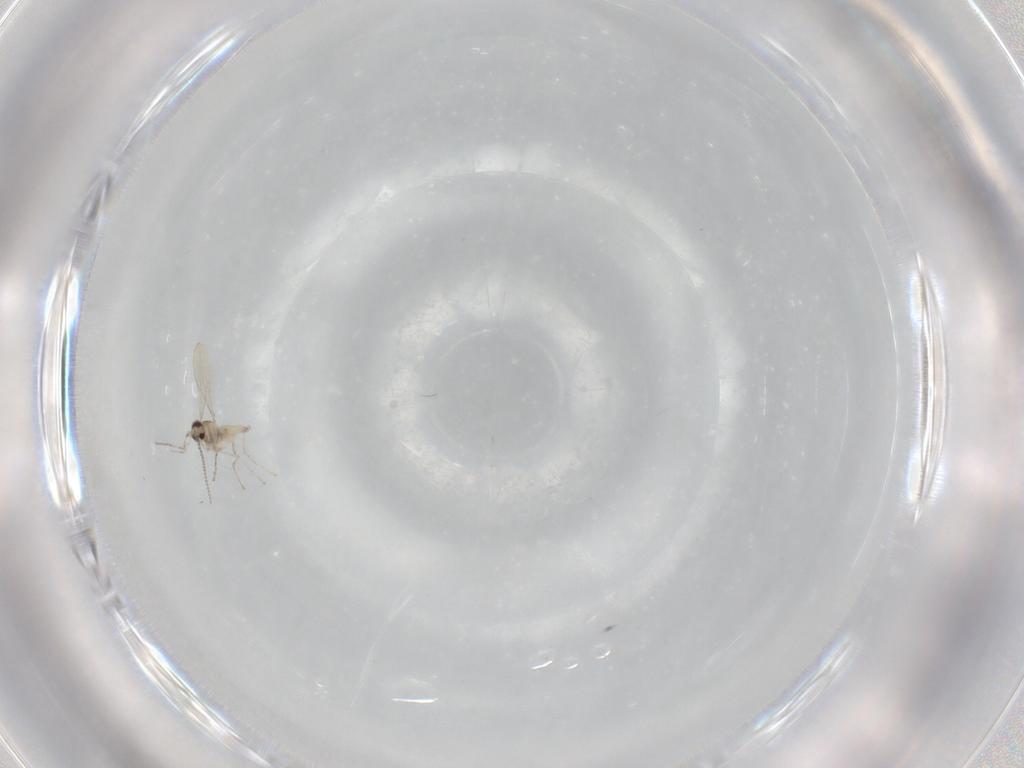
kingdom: Animalia
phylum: Arthropoda
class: Insecta
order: Diptera
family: Cecidomyiidae
